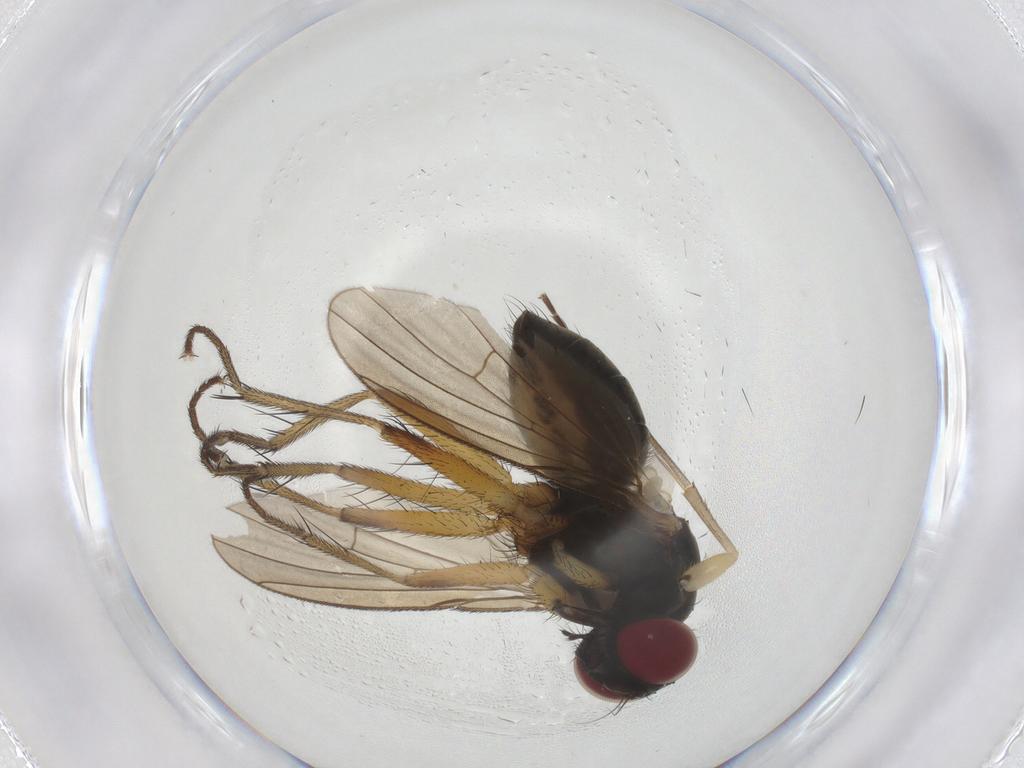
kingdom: Animalia
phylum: Arthropoda
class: Insecta
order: Diptera
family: Muscidae
